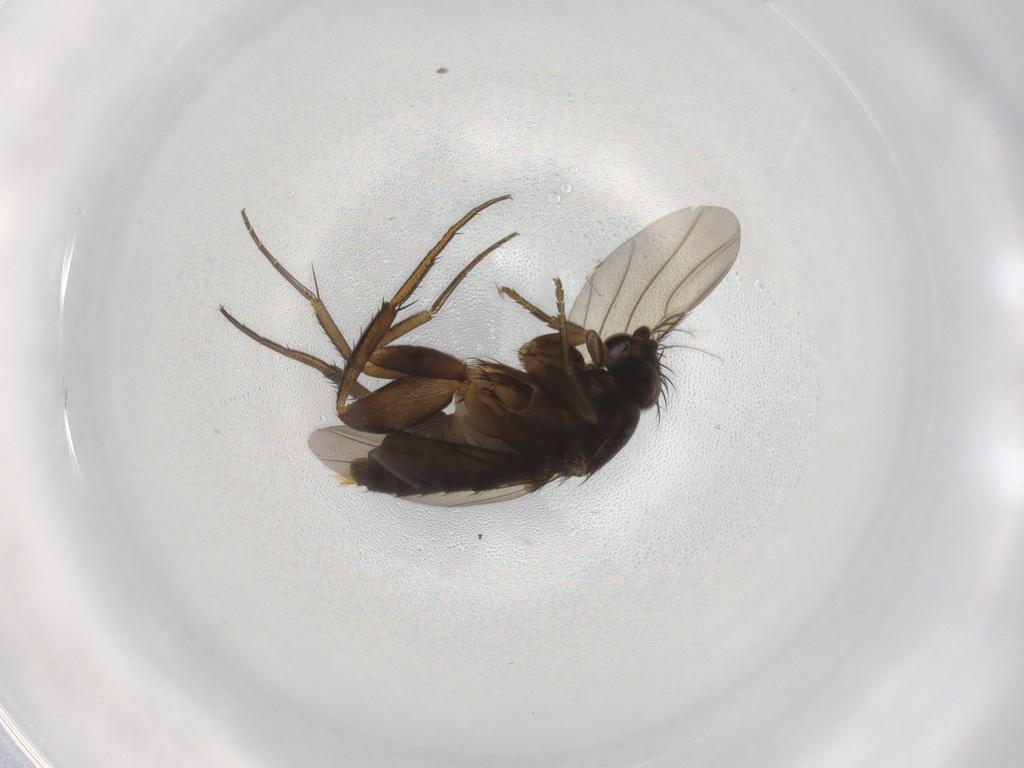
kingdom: Animalia
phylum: Arthropoda
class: Insecta
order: Diptera
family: Phoridae
